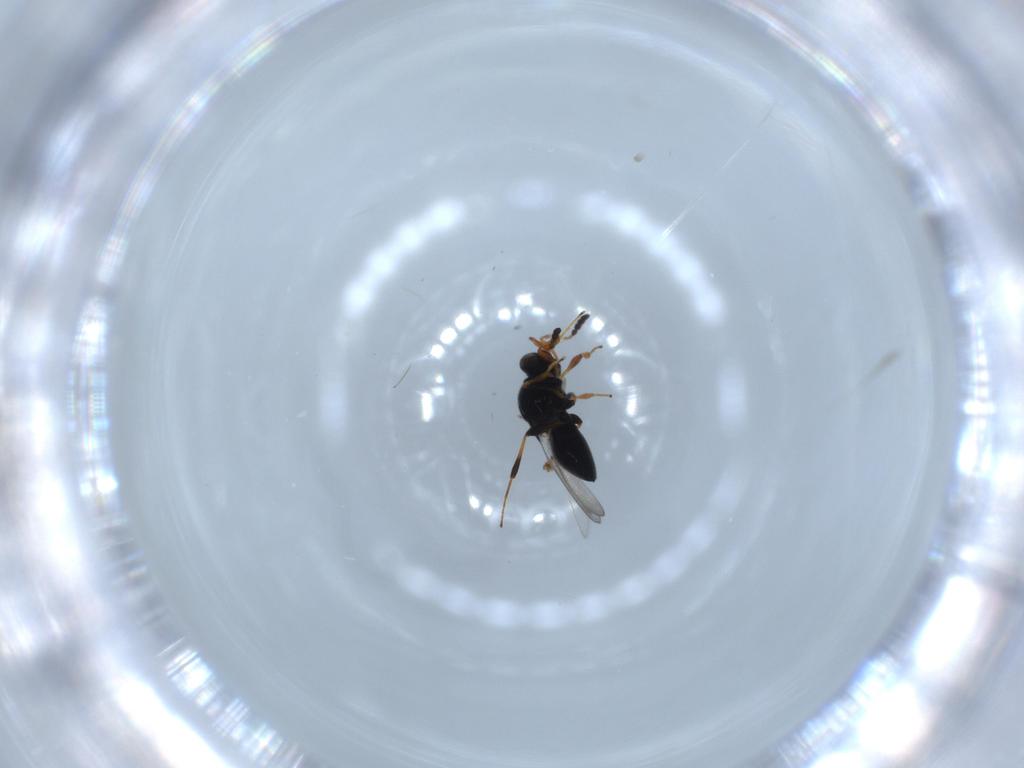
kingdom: Animalia
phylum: Arthropoda
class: Insecta
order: Hymenoptera
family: Platygastridae
